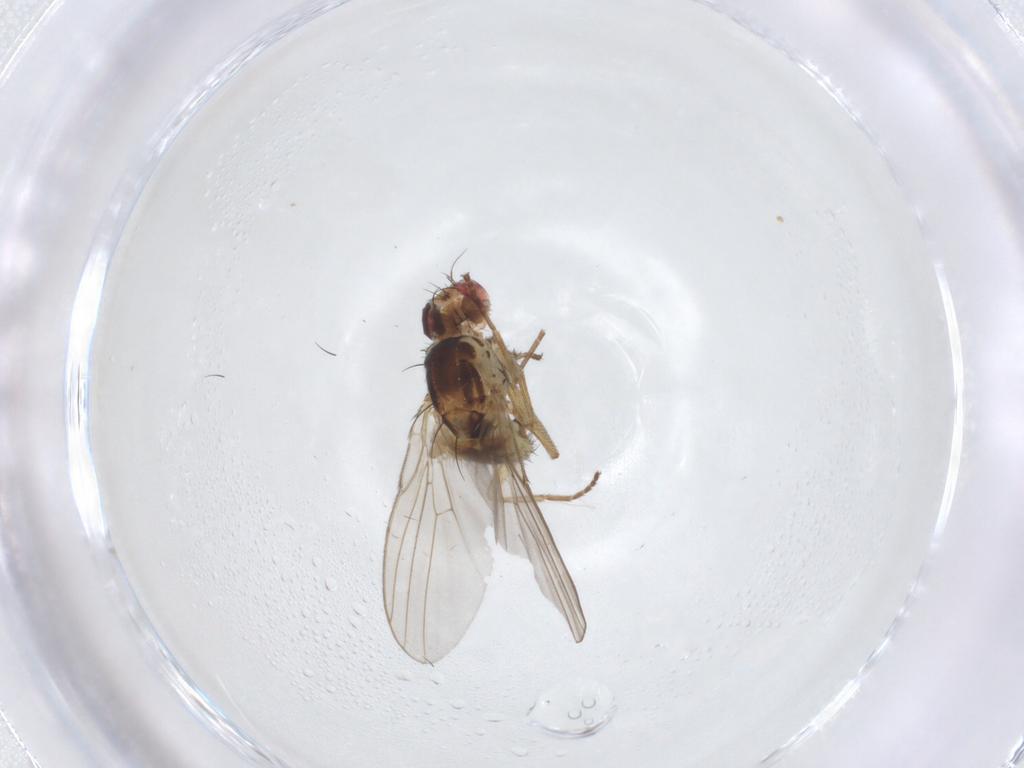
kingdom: Animalia
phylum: Arthropoda
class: Insecta
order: Diptera
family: Agromyzidae
